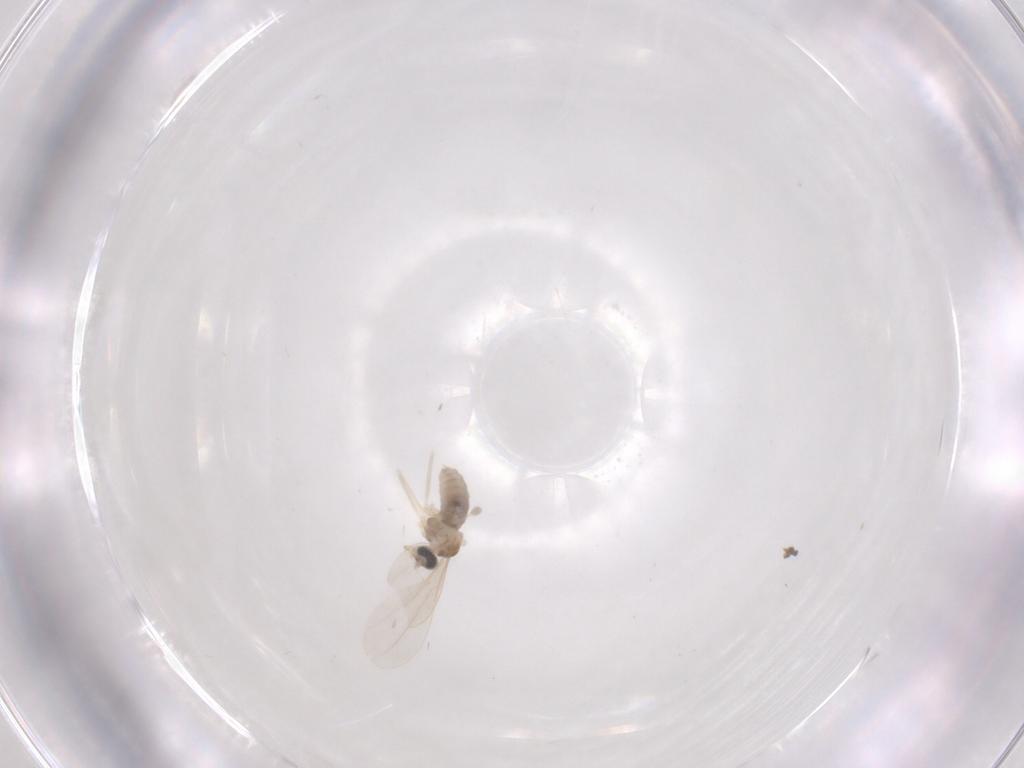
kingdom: Animalia
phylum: Arthropoda
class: Insecta
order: Diptera
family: Cecidomyiidae
